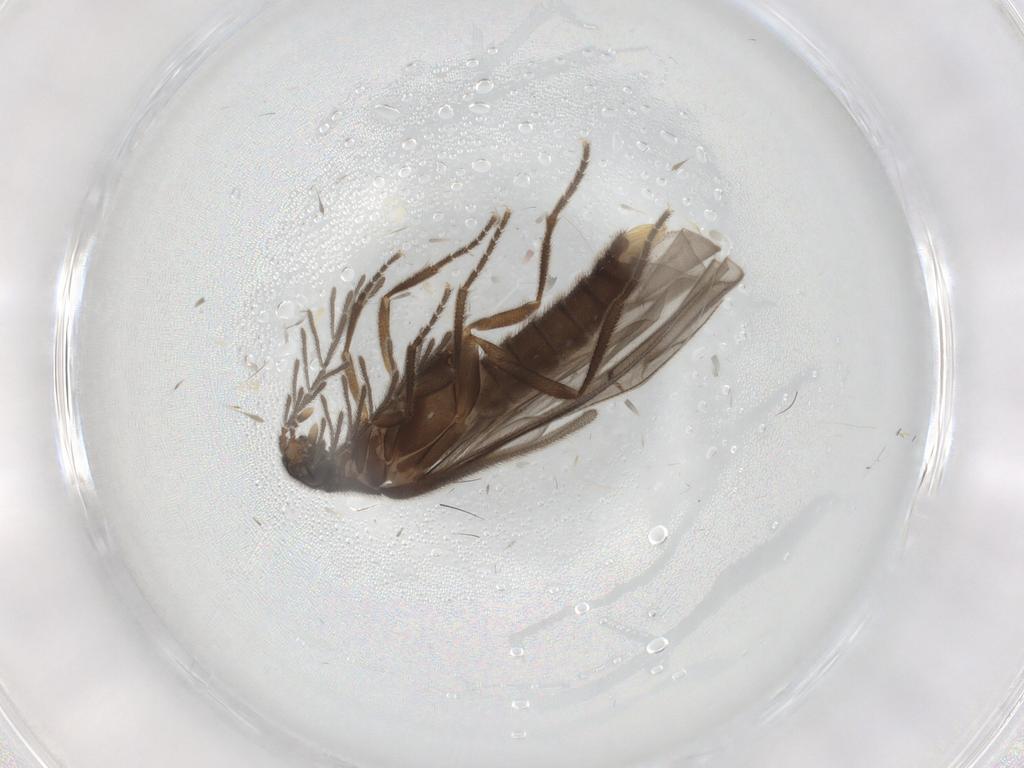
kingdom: Animalia
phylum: Arthropoda
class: Insecta
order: Coleoptera
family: Chrysomelidae
